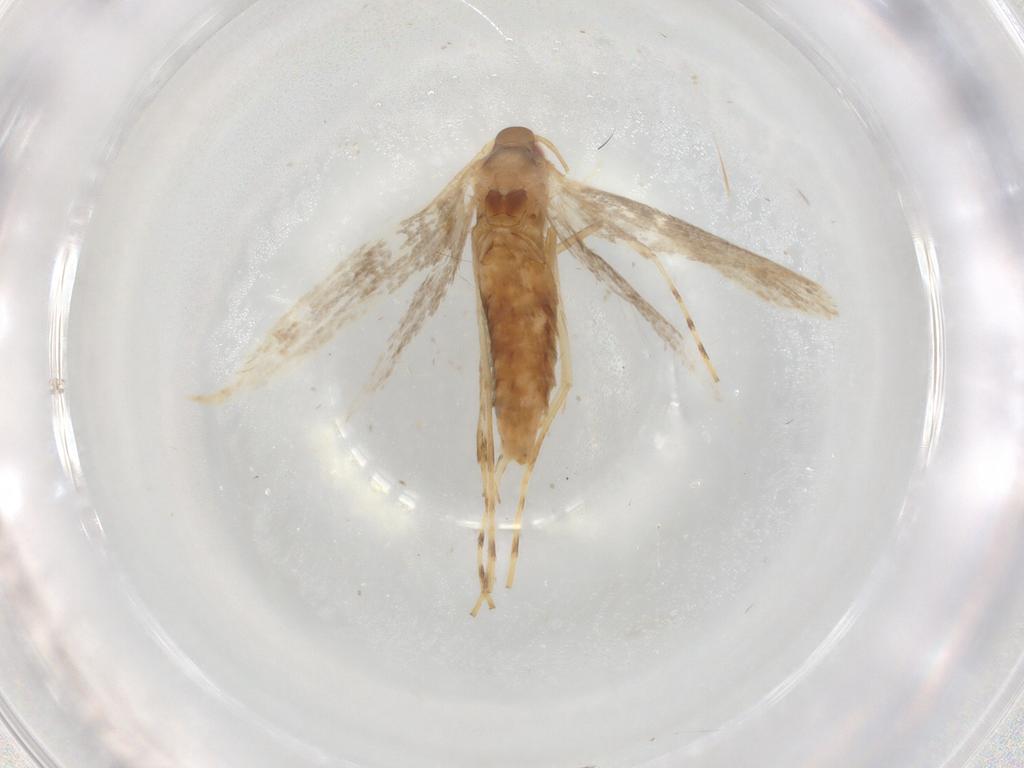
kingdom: Animalia
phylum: Arthropoda
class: Insecta
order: Lepidoptera
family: Gracillariidae
